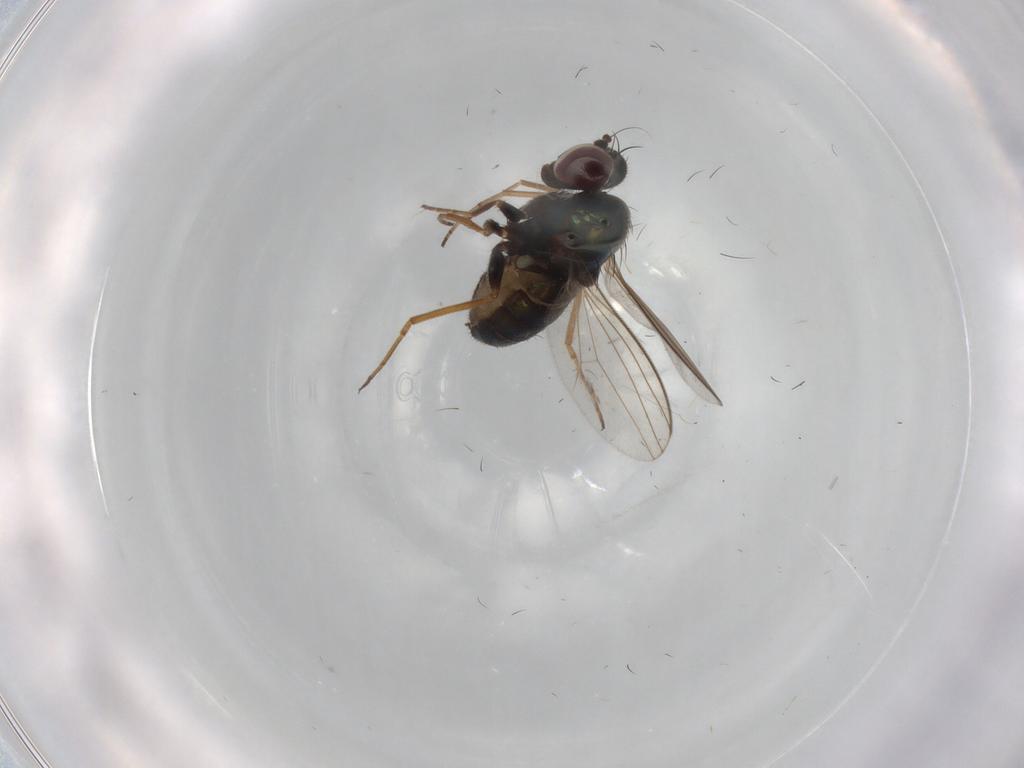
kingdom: Animalia
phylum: Arthropoda
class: Insecta
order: Diptera
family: Dolichopodidae
